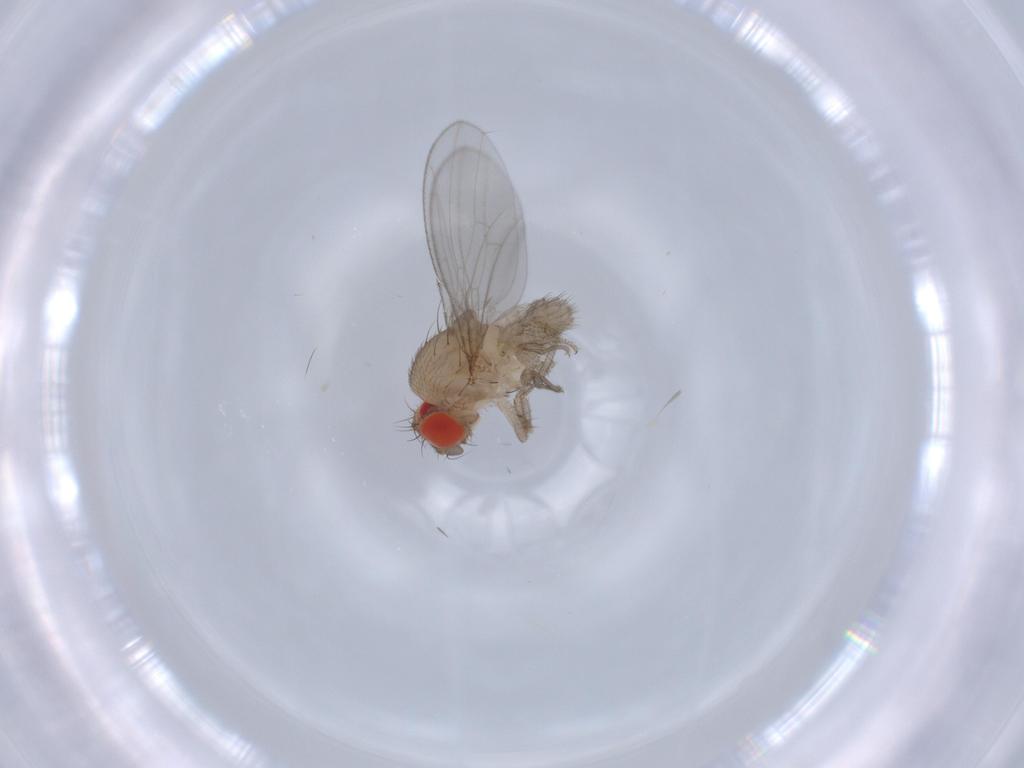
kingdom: Animalia
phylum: Arthropoda
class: Insecta
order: Diptera
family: Drosophilidae
